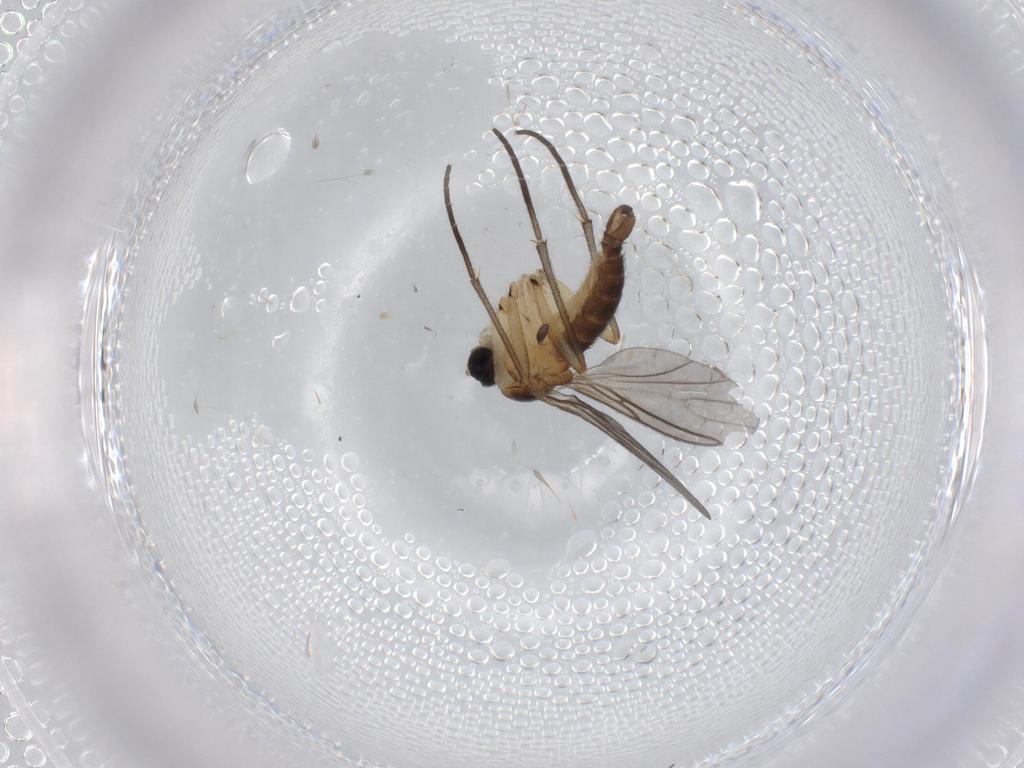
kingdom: Animalia
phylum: Arthropoda
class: Insecta
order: Diptera
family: Sciaridae
